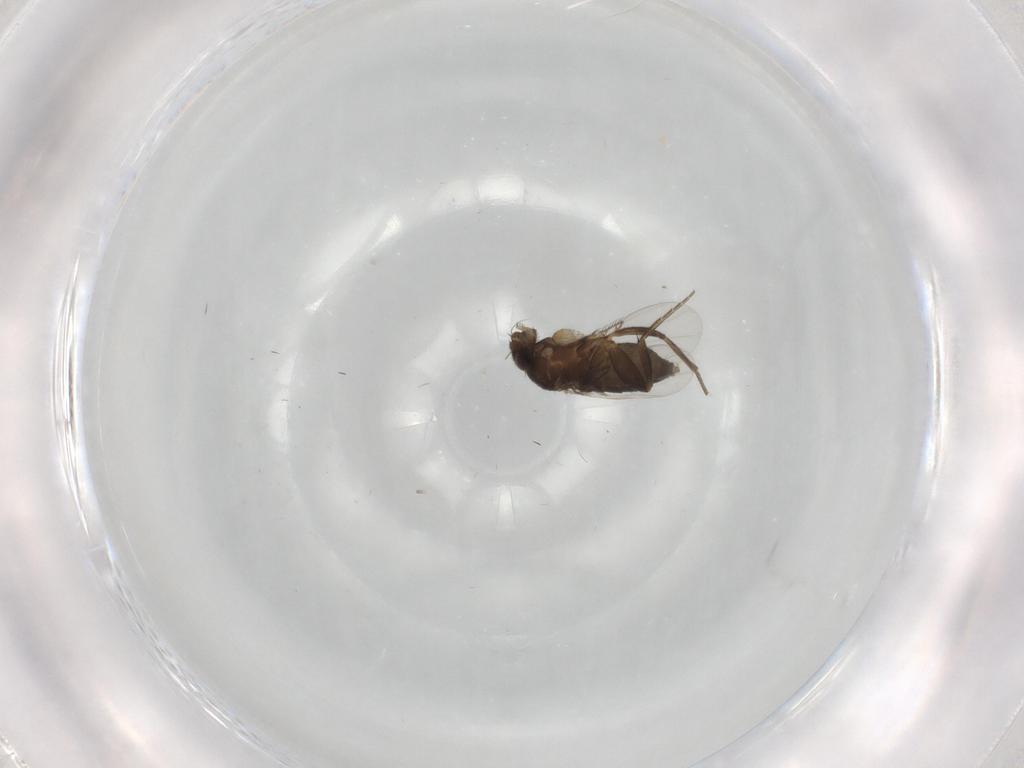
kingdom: Animalia
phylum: Arthropoda
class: Insecta
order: Diptera
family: Phoridae
